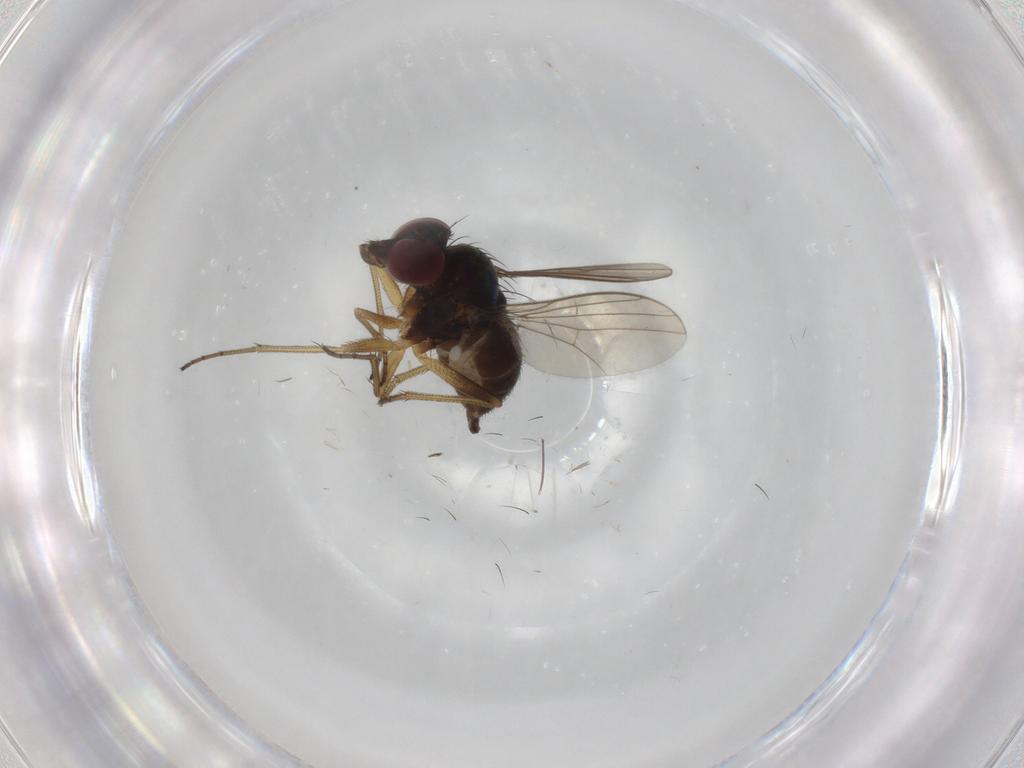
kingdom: Animalia
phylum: Arthropoda
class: Insecta
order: Diptera
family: Dolichopodidae
